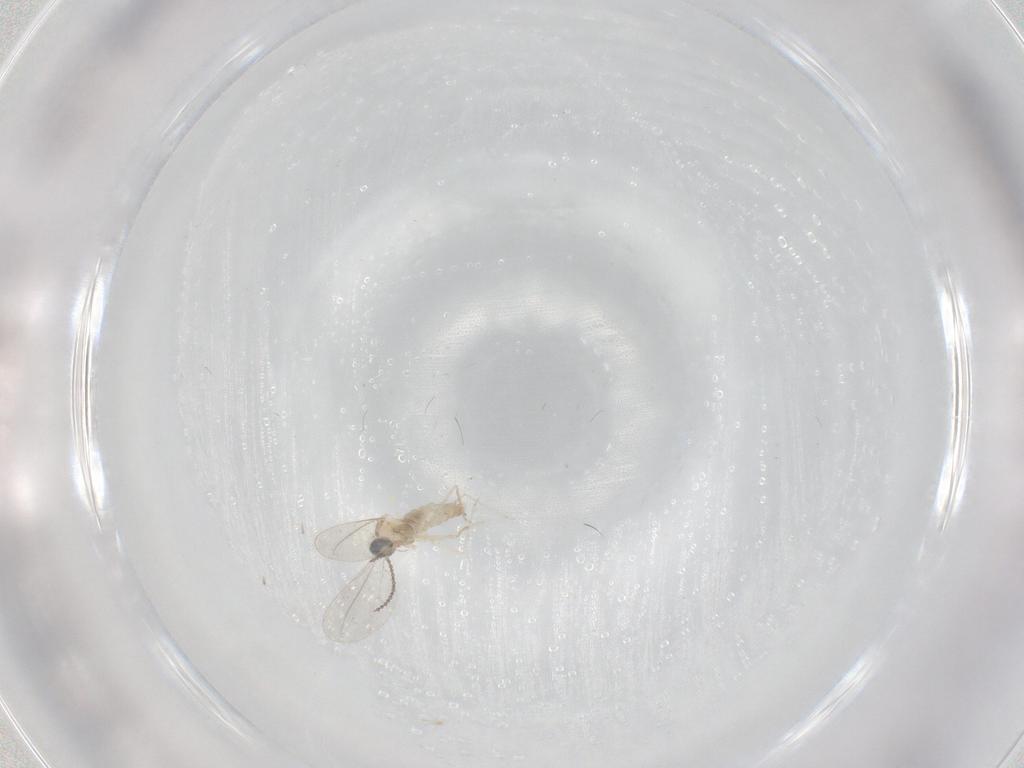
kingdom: Animalia
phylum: Arthropoda
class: Insecta
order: Diptera
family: Cecidomyiidae
